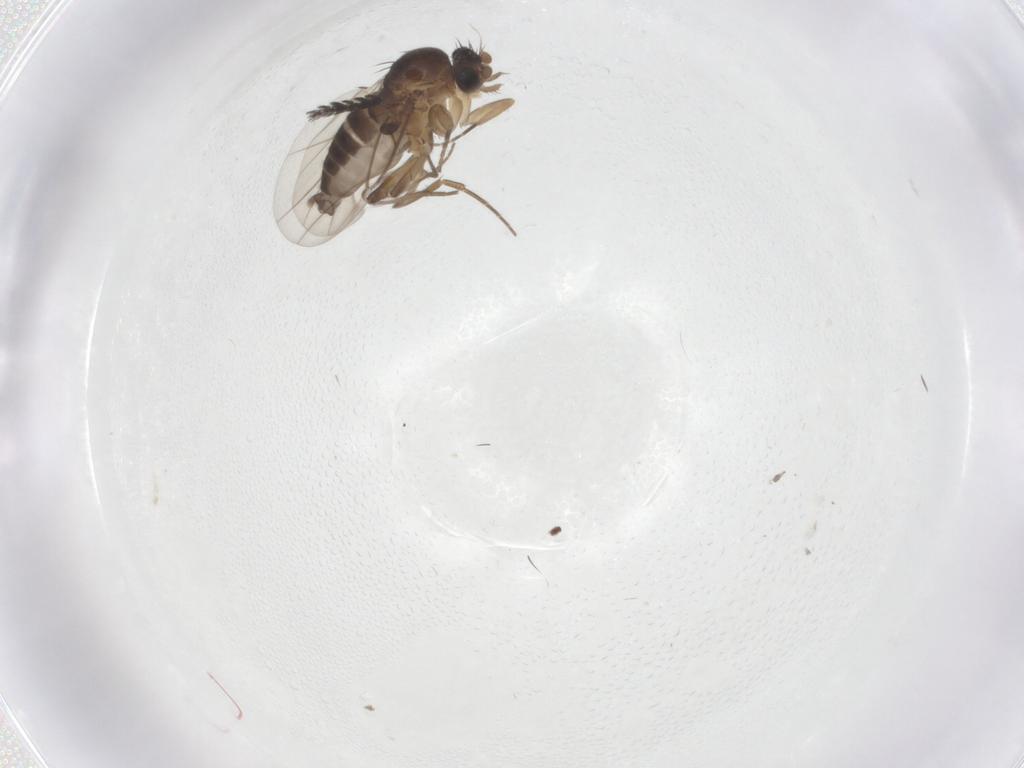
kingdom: Animalia
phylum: Arthropoda
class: Insecta
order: Diptera
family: Phoridae
